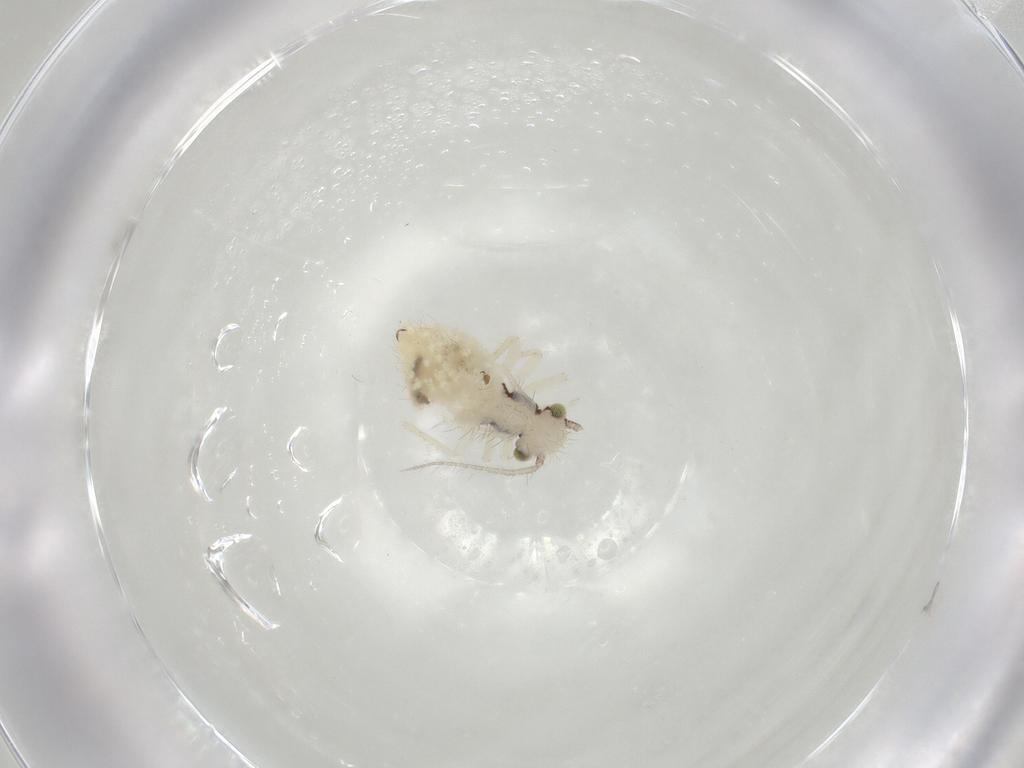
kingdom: Animalia
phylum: Arthropoda
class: Insecta
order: Psocodea
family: Philotarsidae
